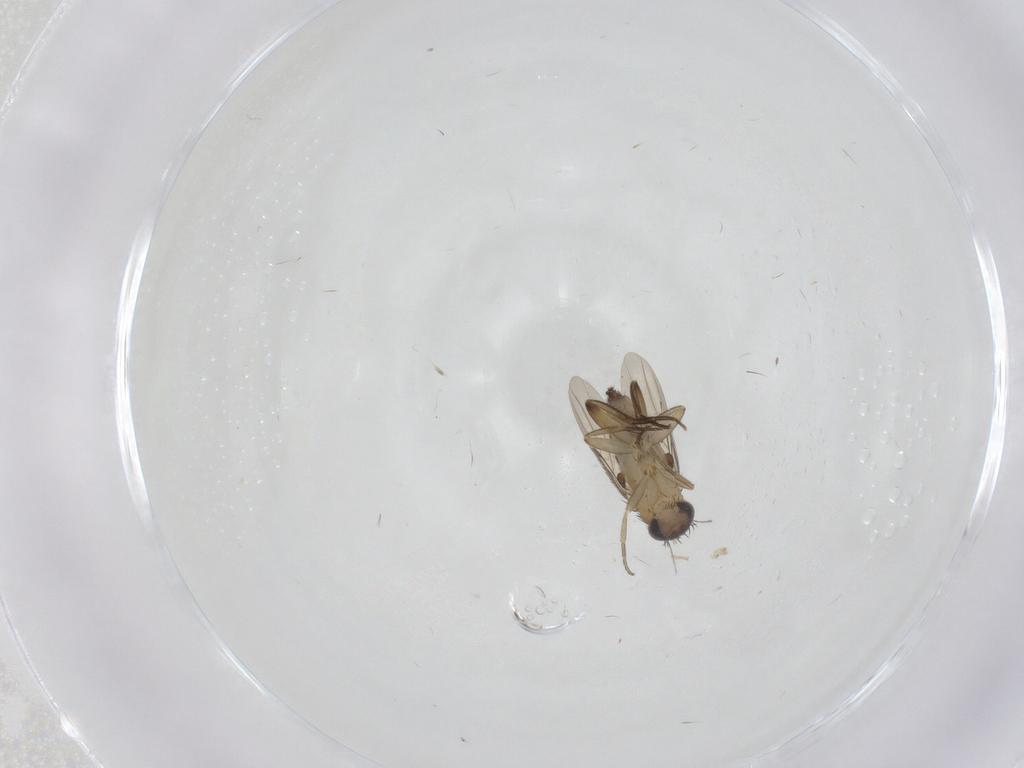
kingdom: Animalia
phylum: Arthropoda
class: Insecta
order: Diptera
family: Phoridae
